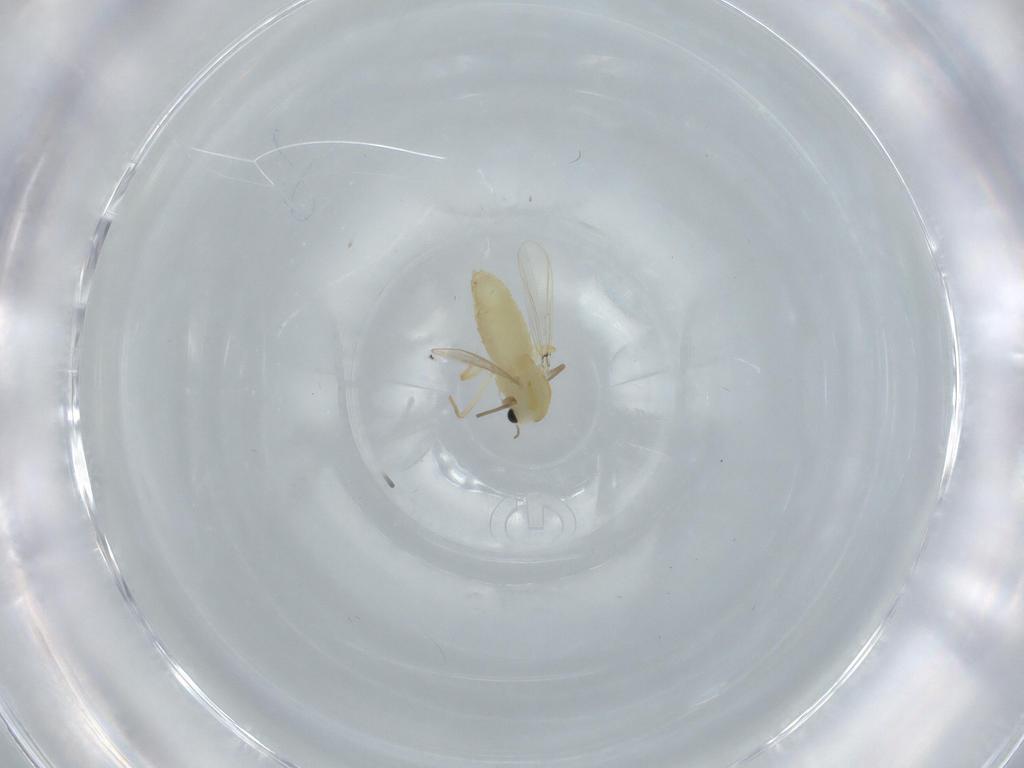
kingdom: Animalia
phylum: Arthropoda
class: Insecta
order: Diptera
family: Chironomidae
